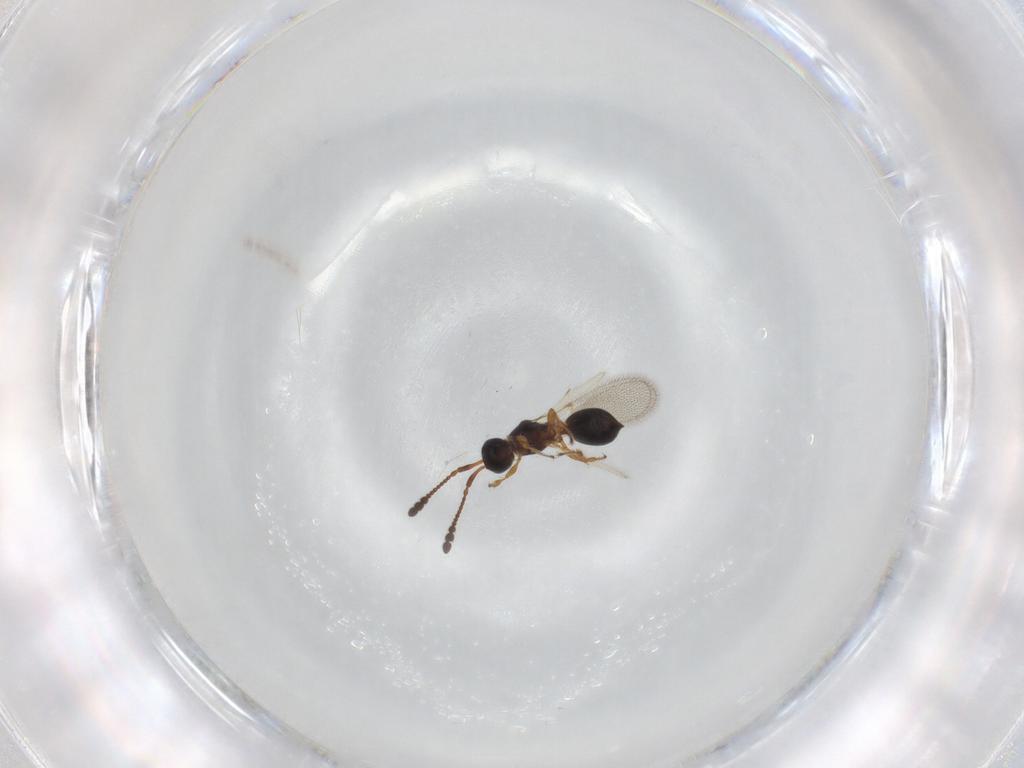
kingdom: Animalia
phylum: Arthropoda
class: Insecta
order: Hymenoptera
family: Diapriidae
